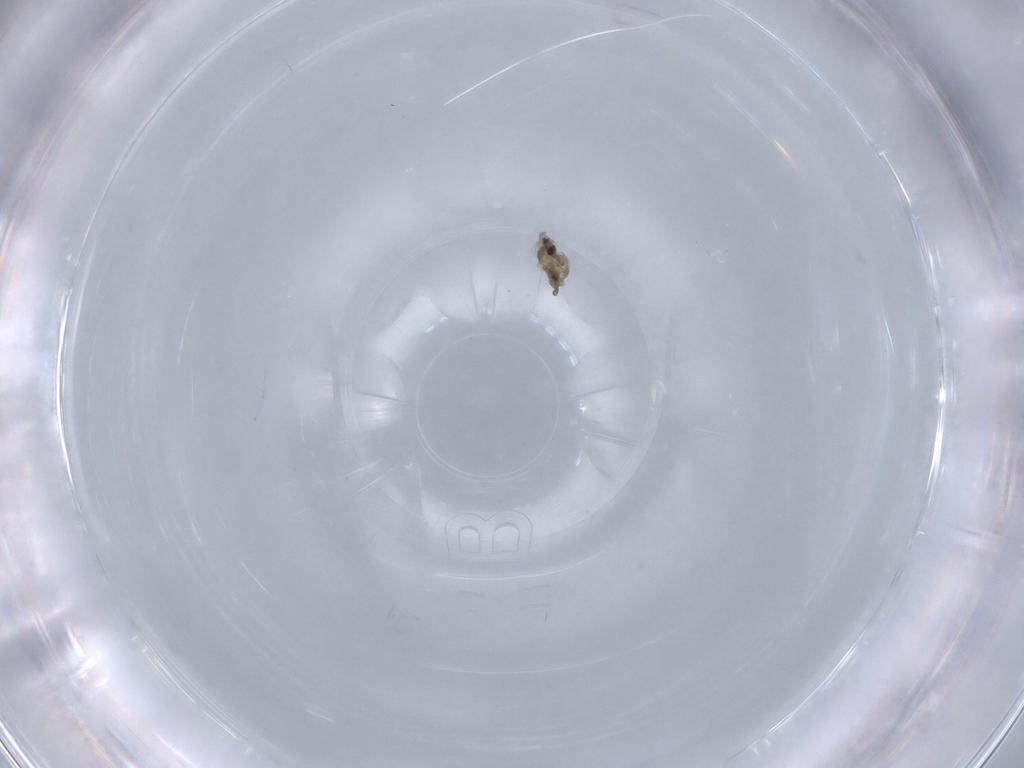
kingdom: Animalia
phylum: Arthropoda
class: Insecta
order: Diptera
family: Cecidomyiidae
